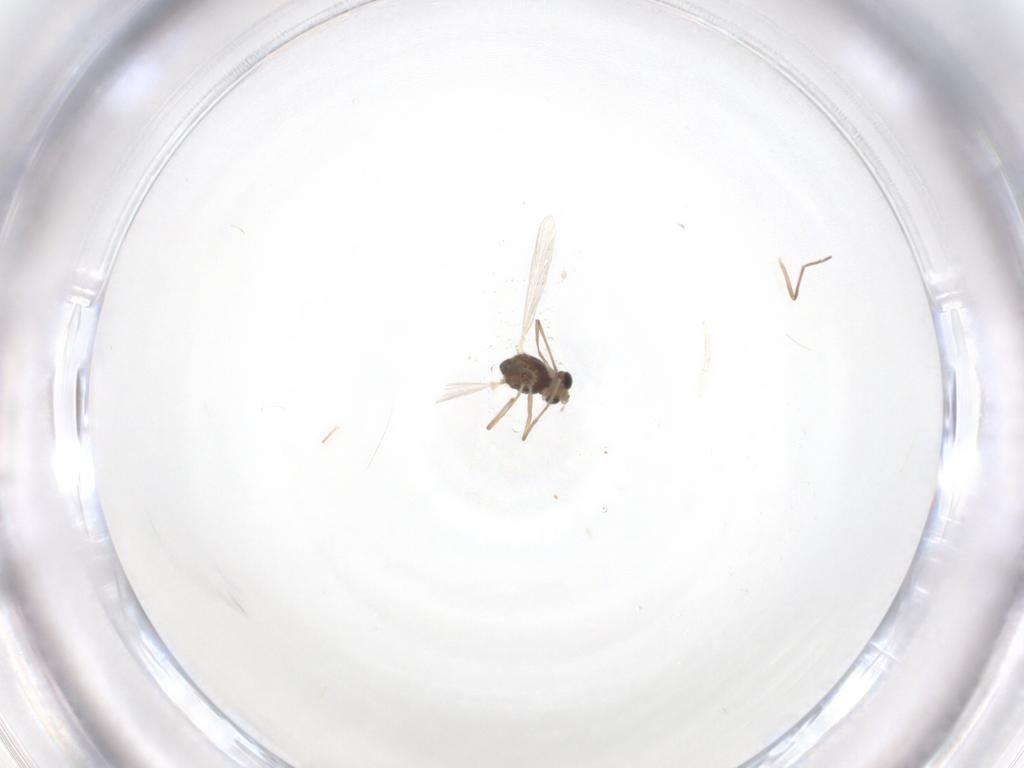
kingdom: Animalia
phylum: Arthropoda
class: Insecta
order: Diptera
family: Chironomidae
